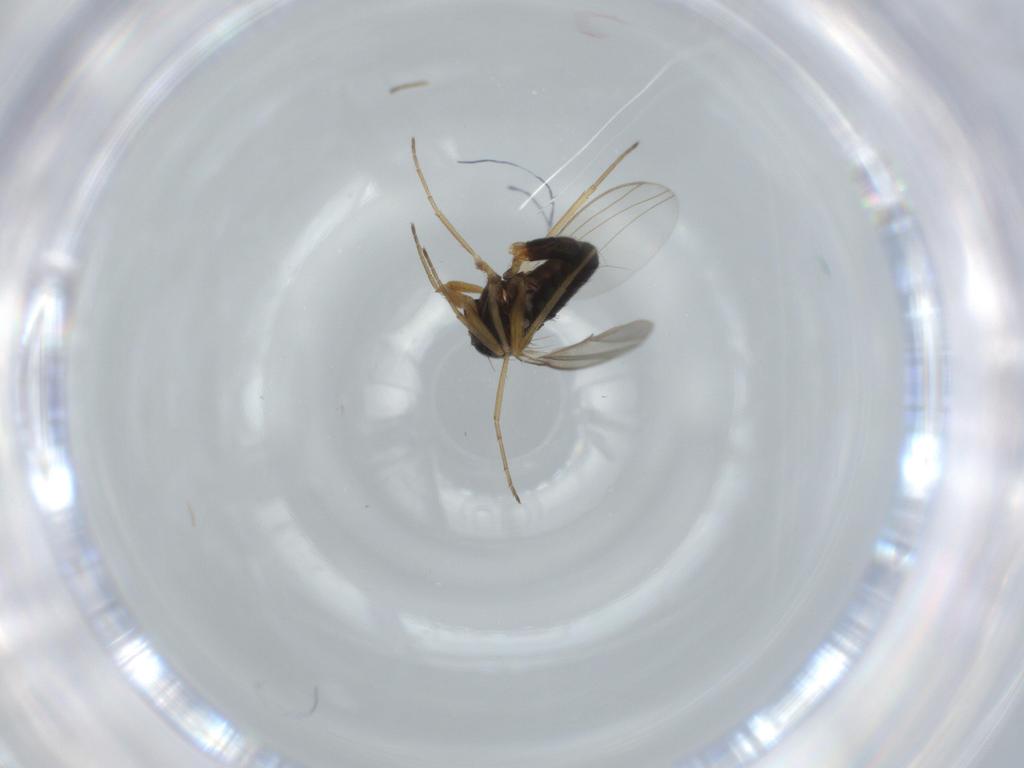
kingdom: Animalia
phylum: Arthropoda
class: Insecta
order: Diptera
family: Dolichopodidae
